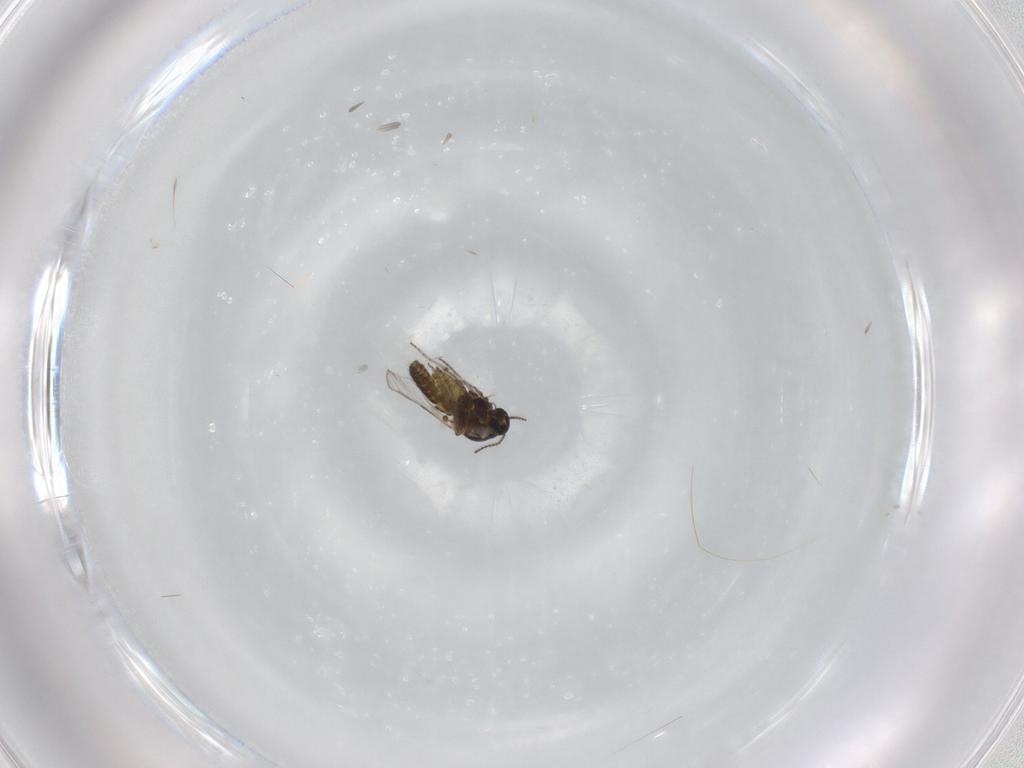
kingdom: Animalia
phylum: Arthropoda
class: Insecta
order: Diptera
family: Ceratopogonidae
